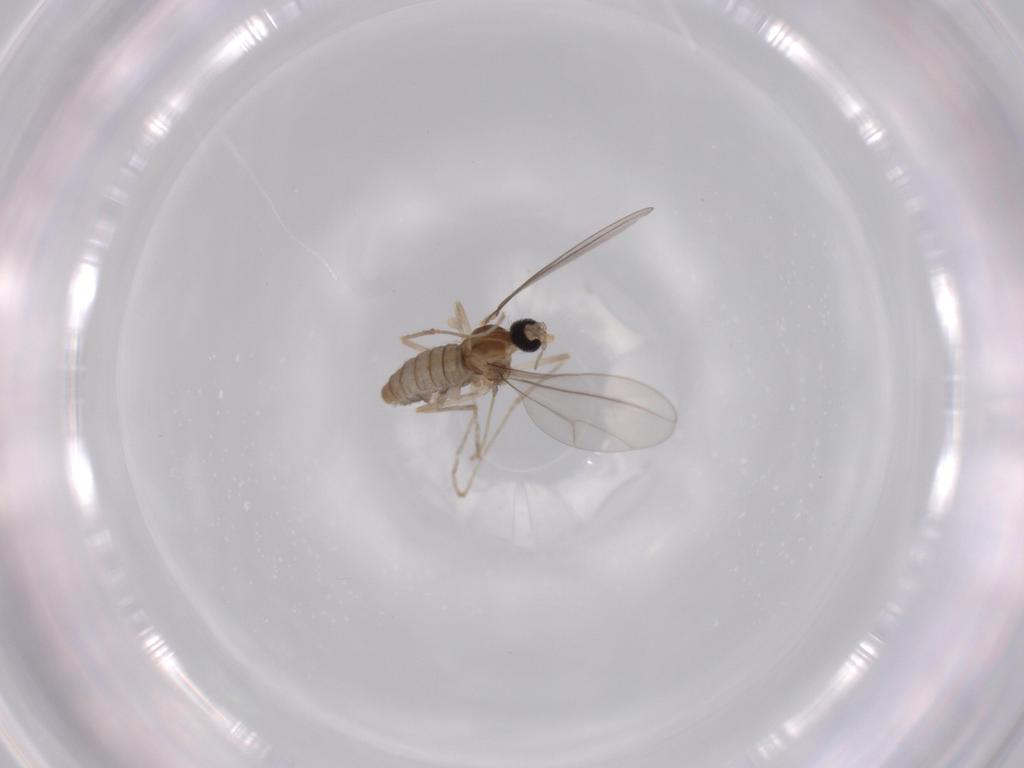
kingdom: Animalia
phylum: Arthropoda
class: Insecta
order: Diptera
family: Cecidomyiidae
